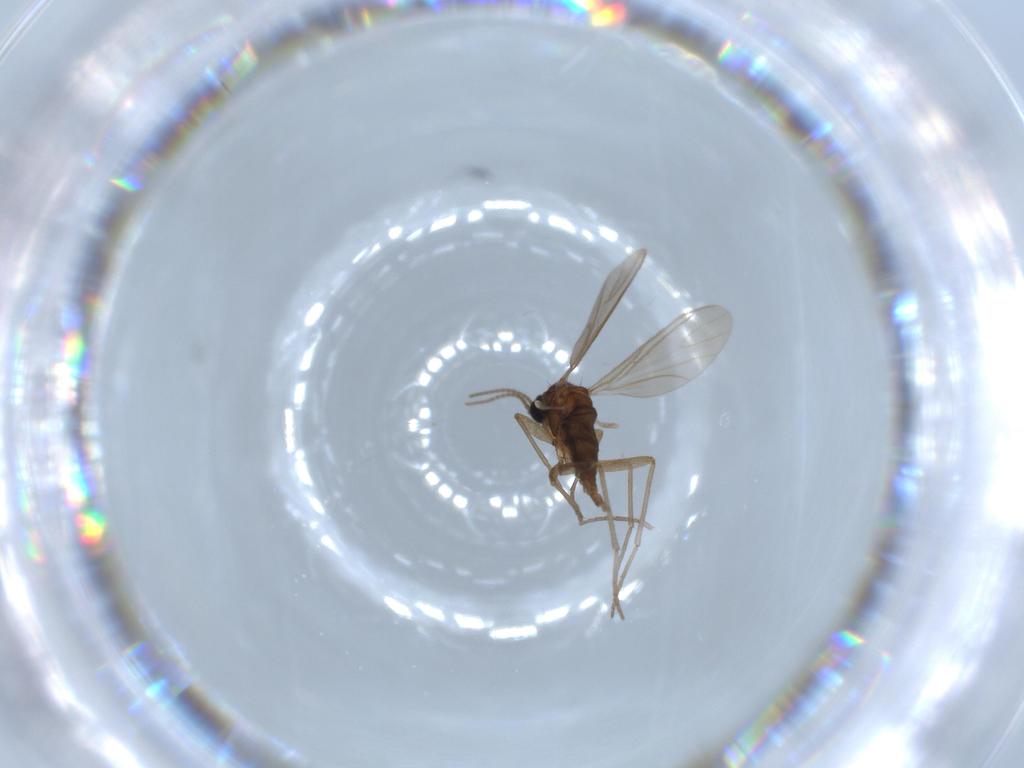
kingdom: Animalia
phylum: Arthropoda
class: Insecta
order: Diptera
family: Sciaridae
